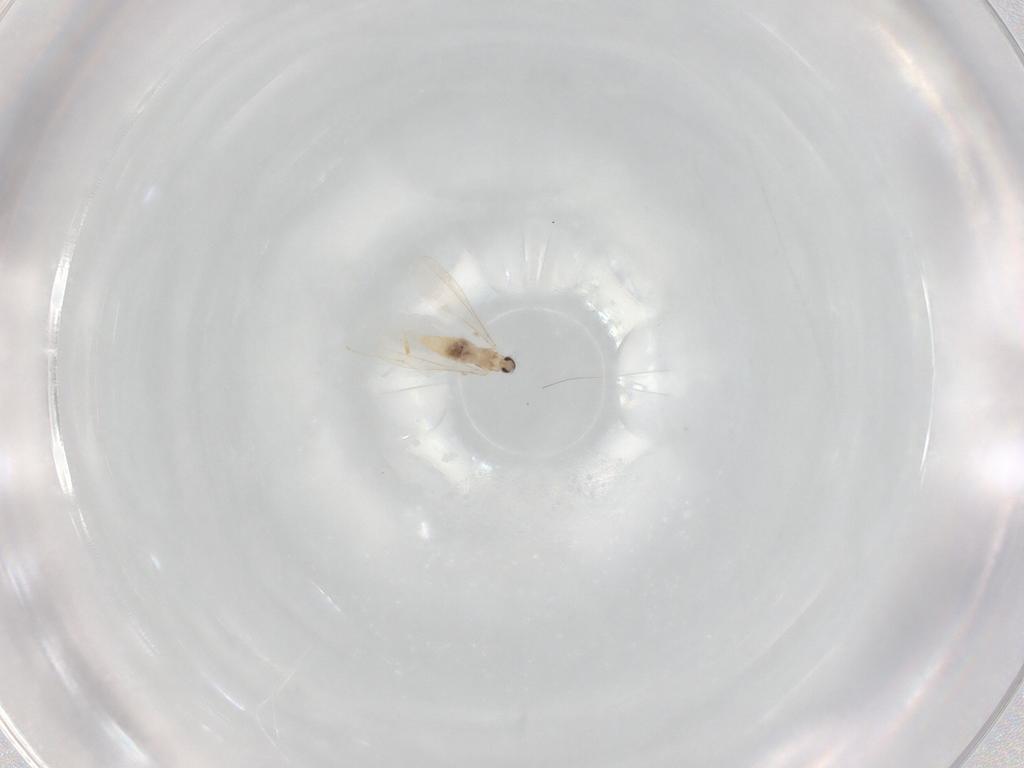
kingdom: Animalia
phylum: Arthropoda
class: Insecta
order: Diptera
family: Cecidomyiidae
